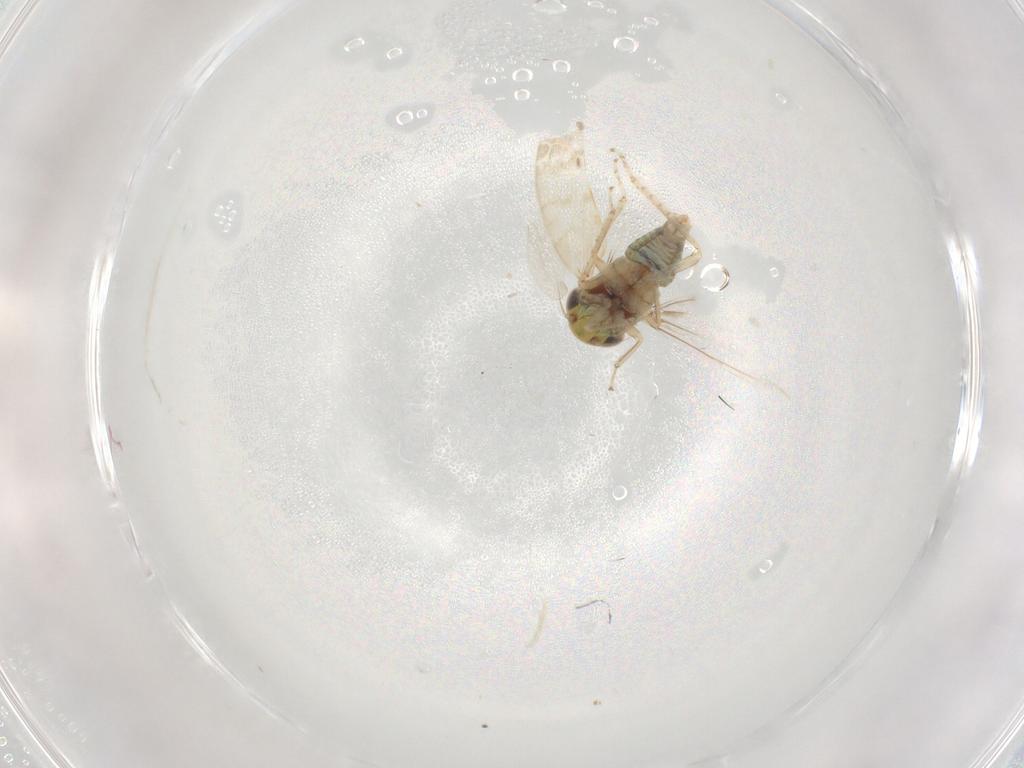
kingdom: Animalia
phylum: Arthropoda
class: Insecta
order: Hemiptera
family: Cicadellidae
